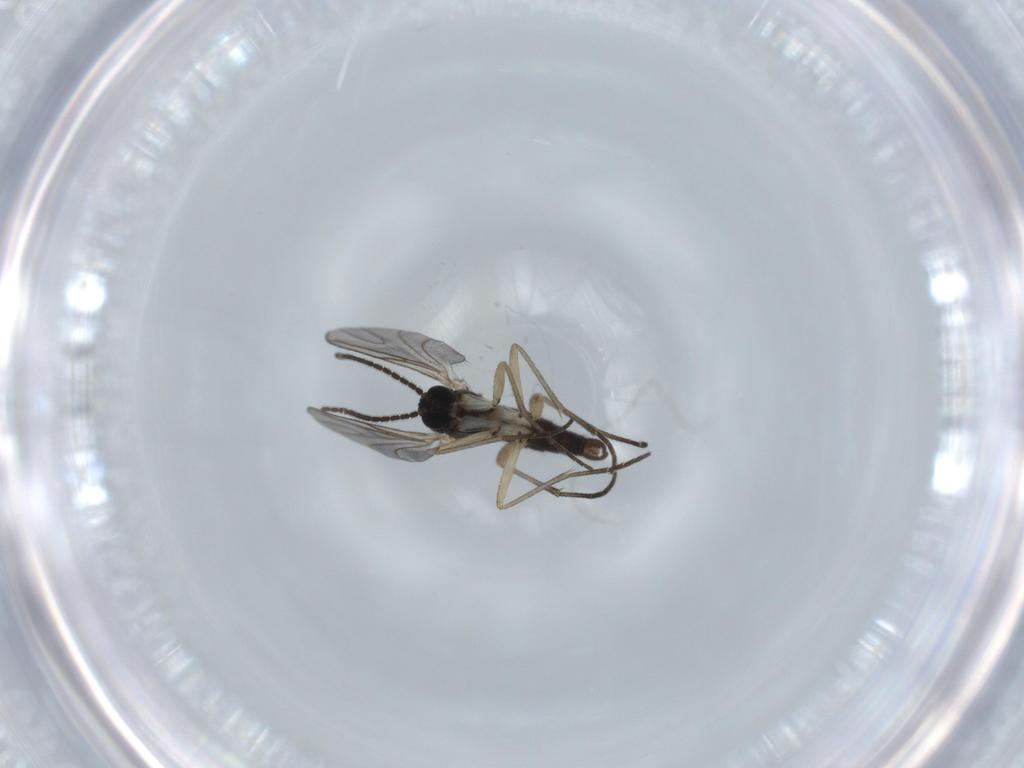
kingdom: Animalia
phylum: Arthropoda
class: Insecta
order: Diptera
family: Sciaridae
